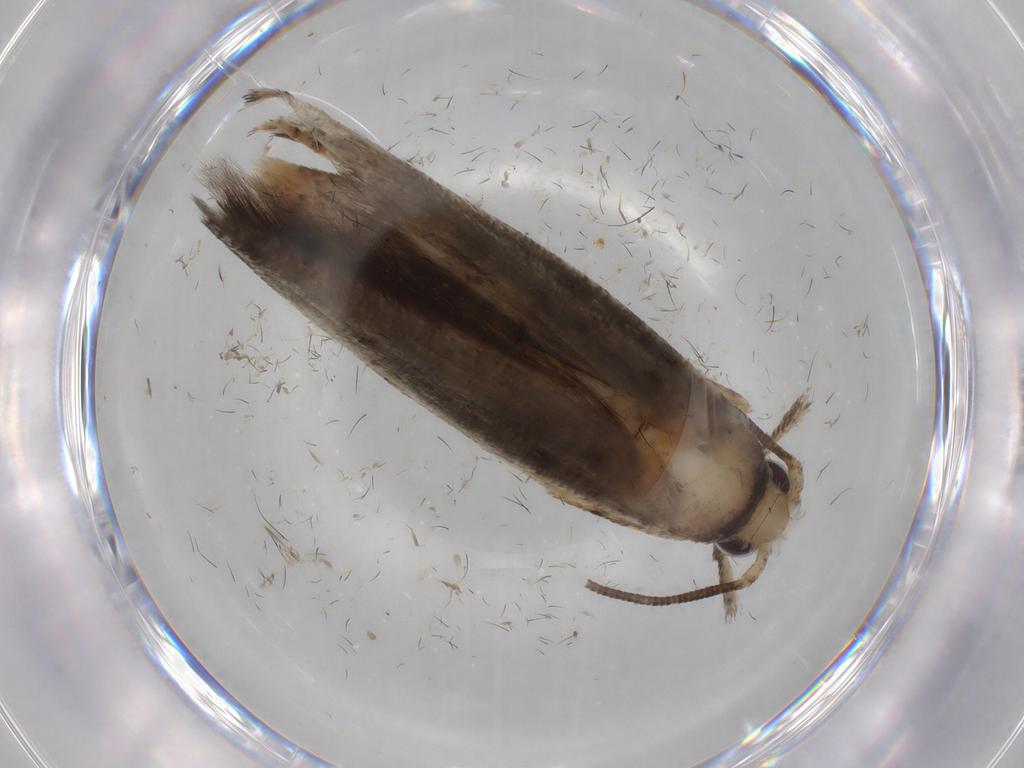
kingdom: Animalia
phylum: Arthropoda
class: Insecta
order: Lepidoptera
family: Yponomeutidae
